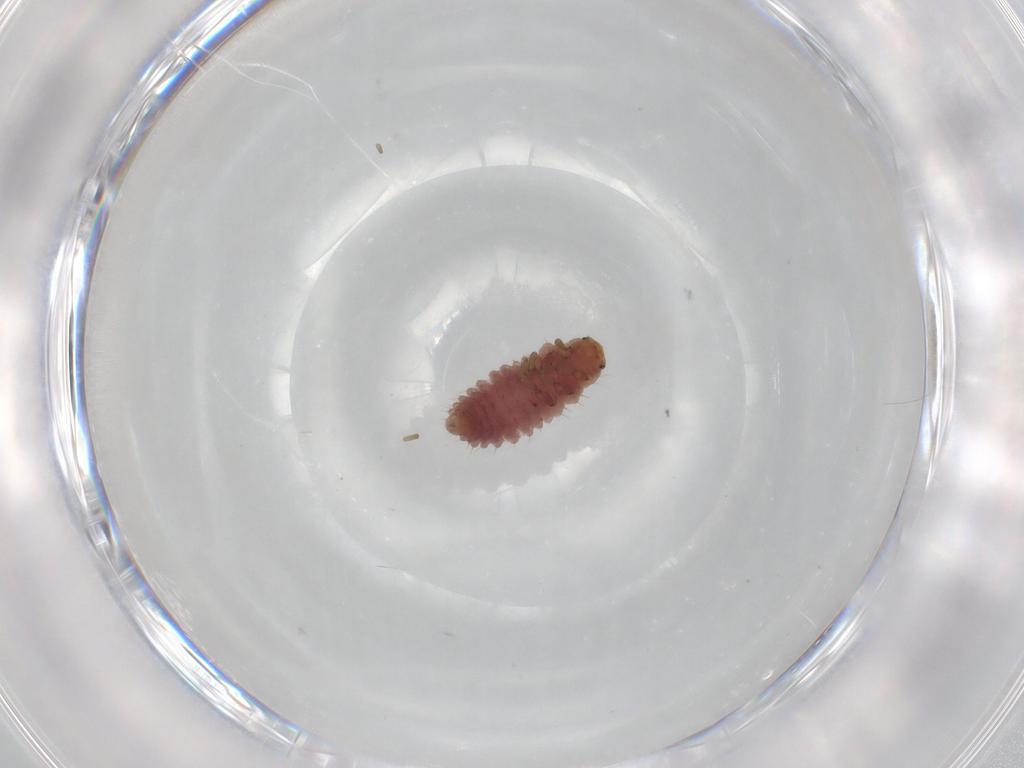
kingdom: Animalia
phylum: Arthropoda
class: Insecta
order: Coleoptera
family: Coccinellidae
